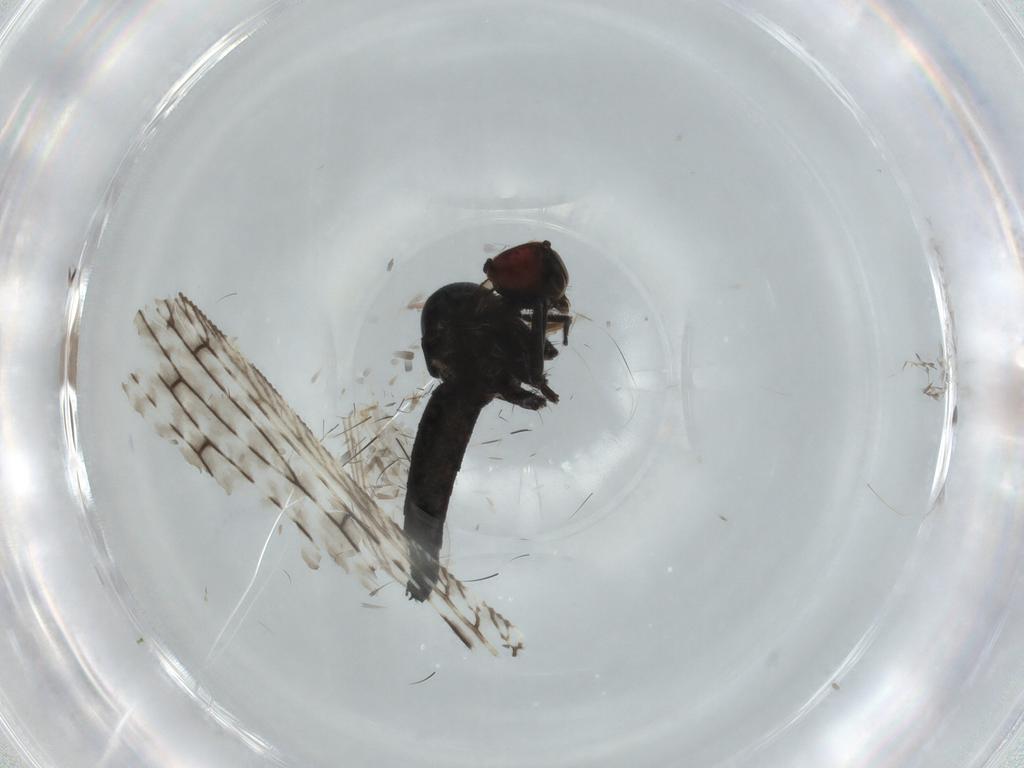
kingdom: Animalia
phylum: Arthropoda
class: Insecta
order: Diptera
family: Hybotidae
